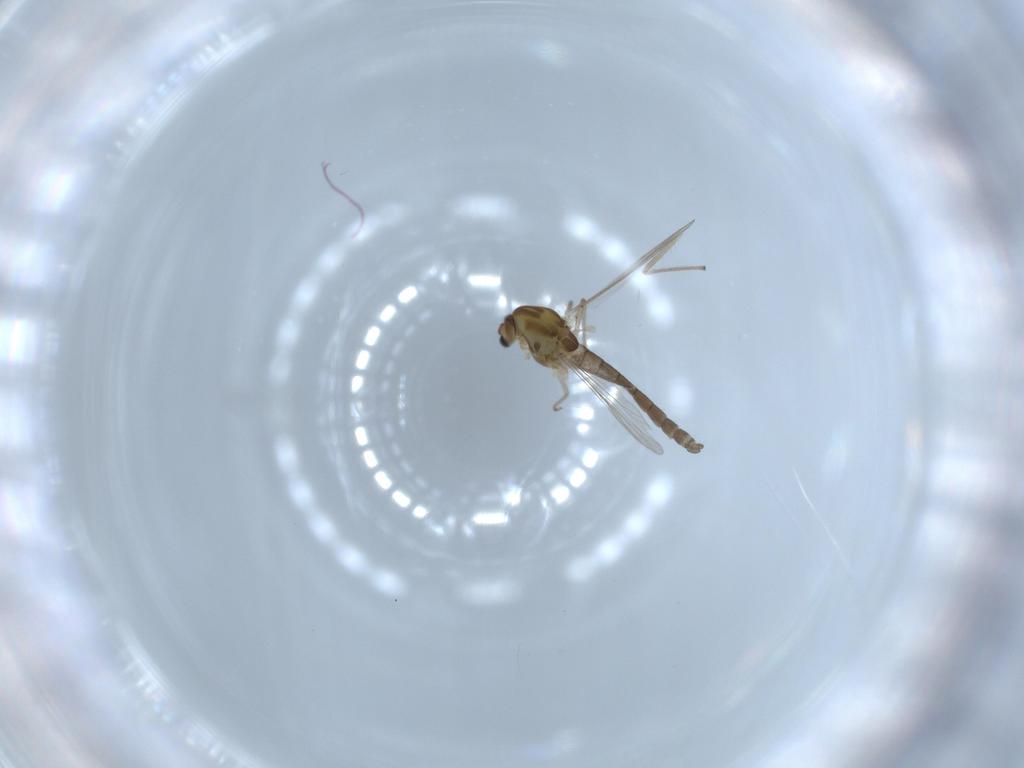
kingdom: Animalia
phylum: Arthropoda
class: Insecta
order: Diptera
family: Chironomidae
